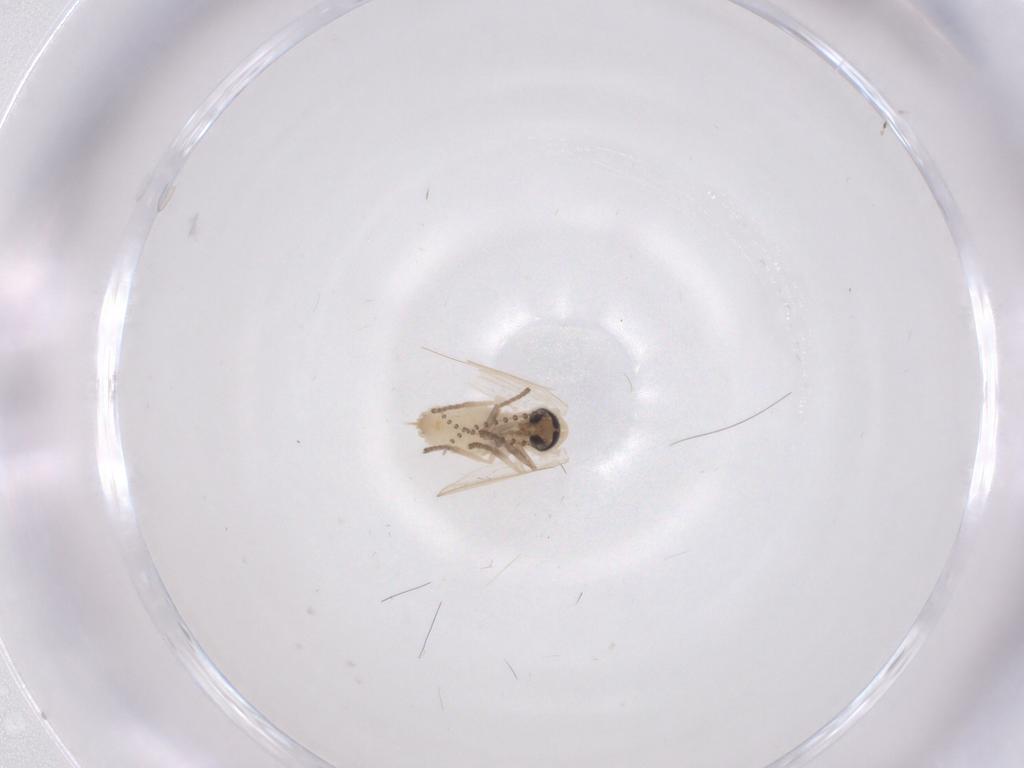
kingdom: Animalia
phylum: Arthropoda
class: Insecta
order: Diptera
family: Psychodidae
